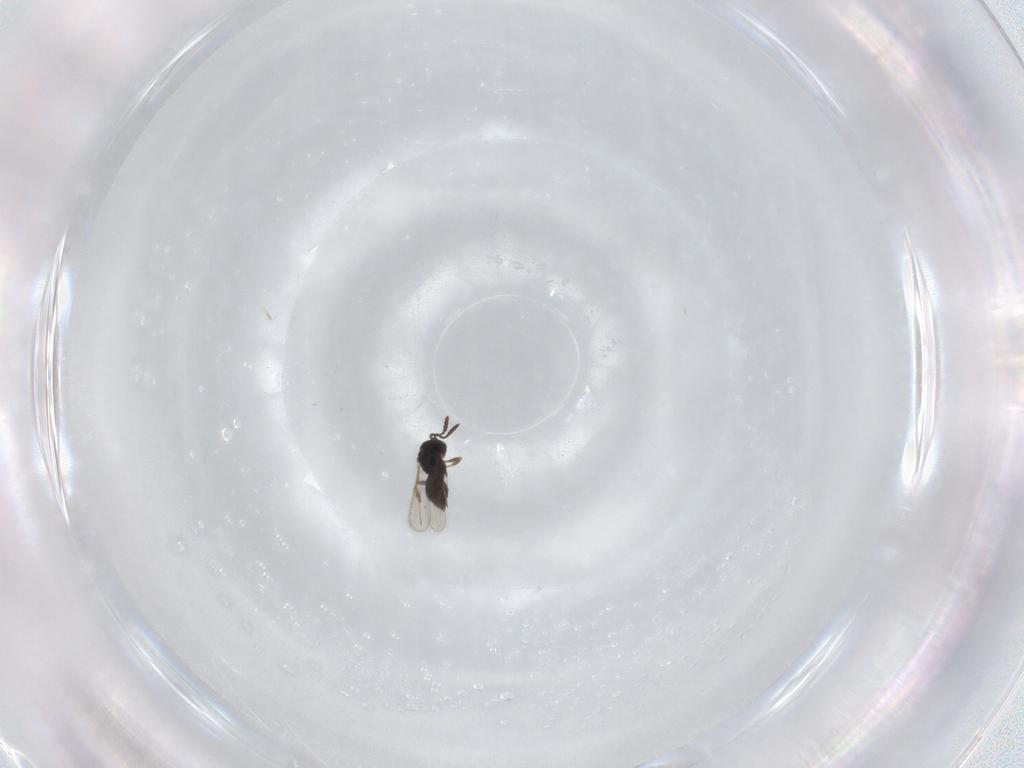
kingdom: Animalia
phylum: Arthropoda
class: Insecta
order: Hymenoptera
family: Scelionidae
